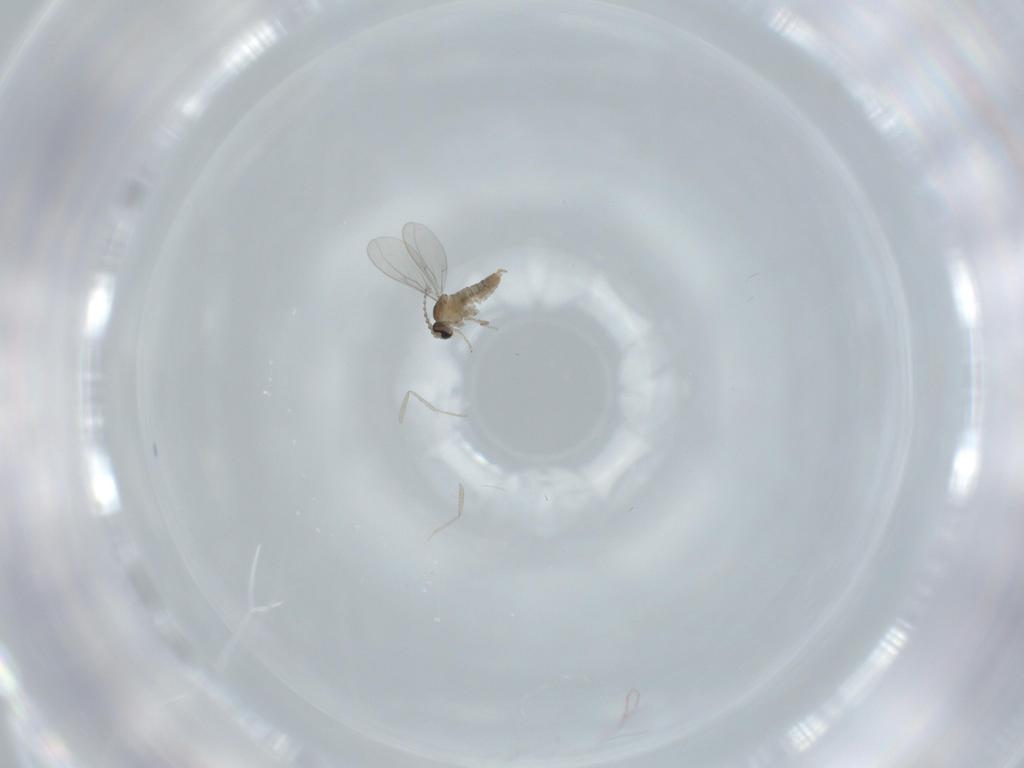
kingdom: Animalia
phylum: Arthropoda
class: Insecta
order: Diptera
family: Cecidomyiidae
